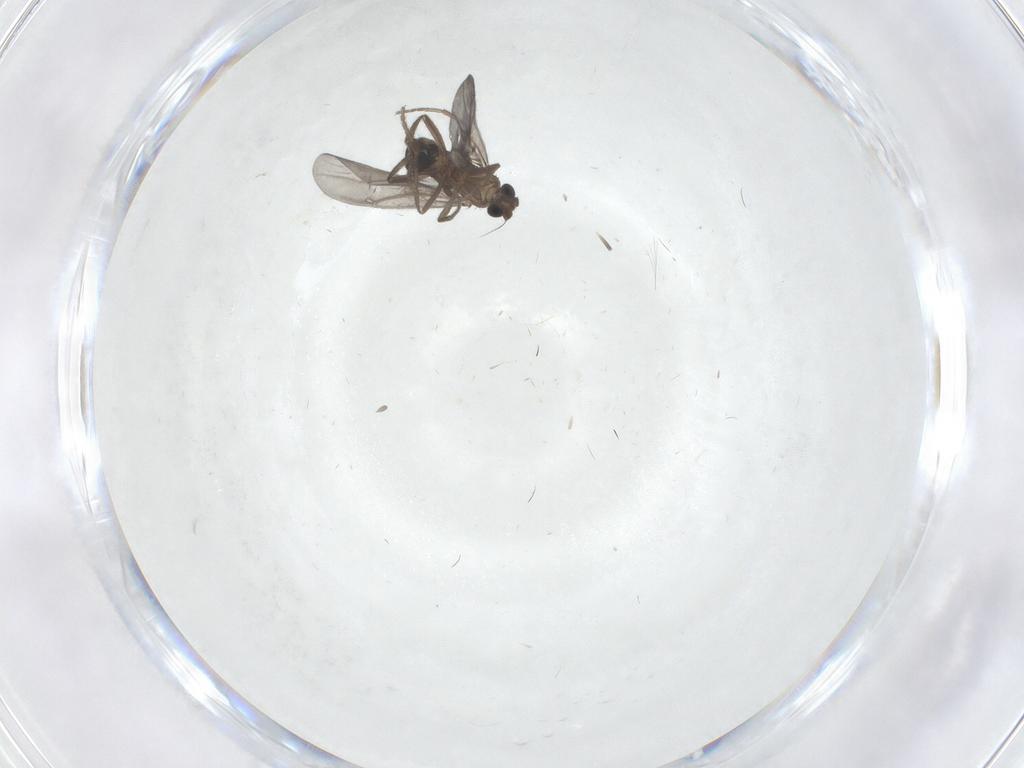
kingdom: Animalia
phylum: Arthropoda
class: Insecta
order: Diptera
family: Phoridae
